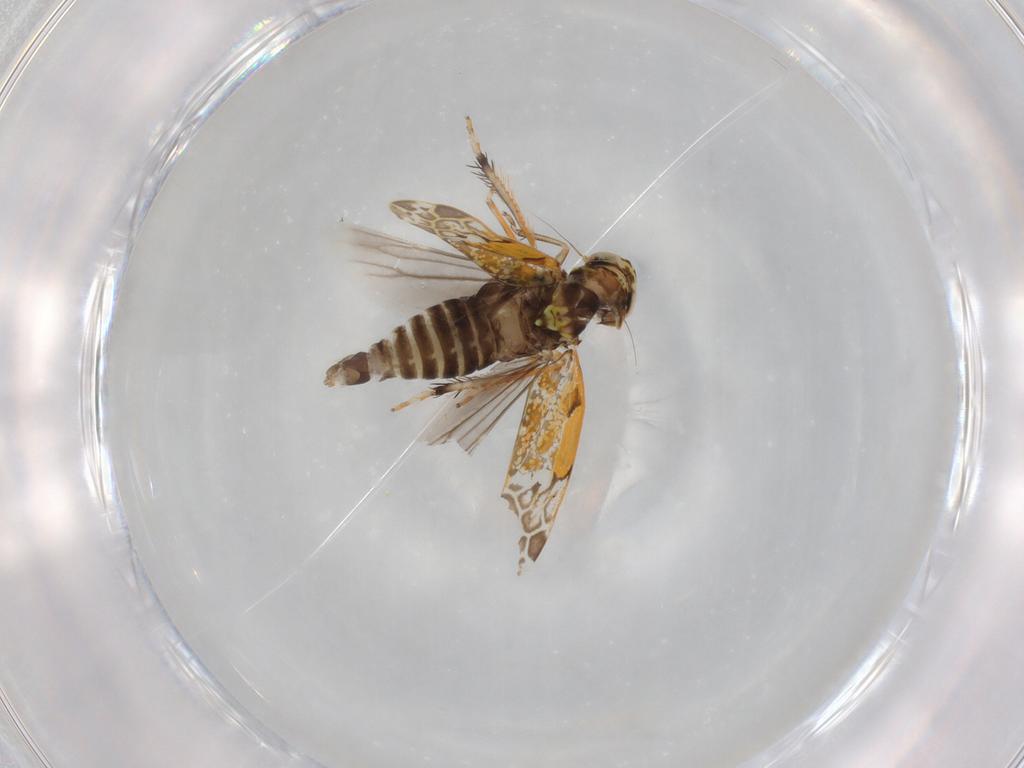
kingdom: Animalia
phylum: Arthropoda
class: Insecta
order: Hemiptera
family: Cicadellidae
